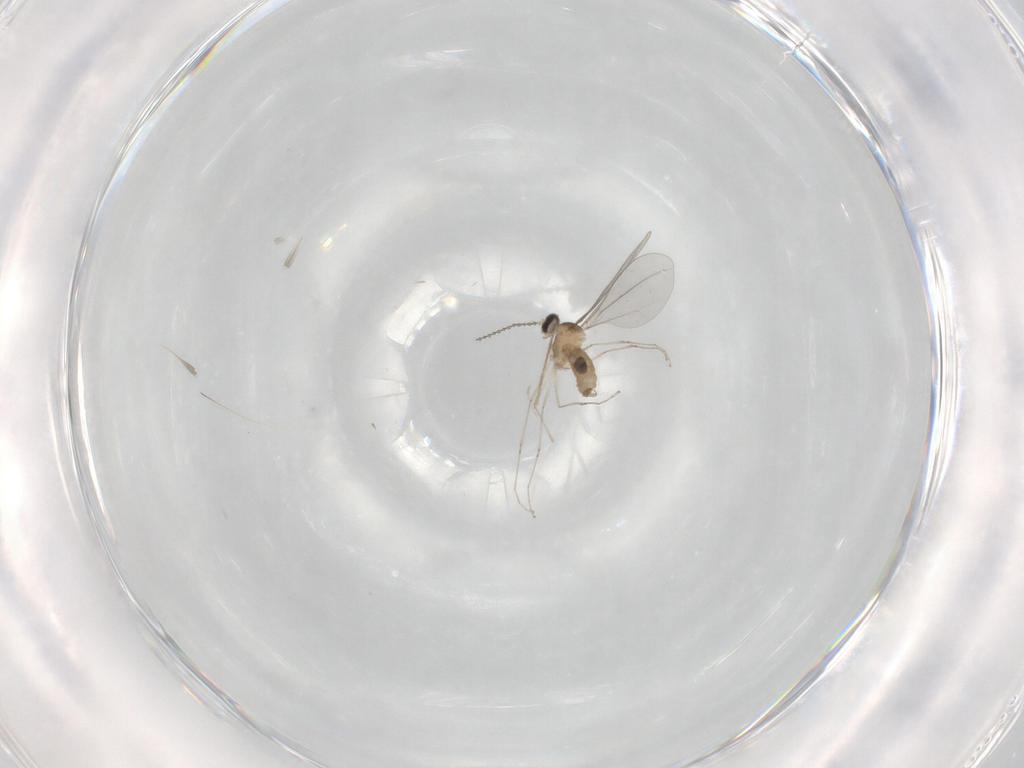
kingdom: Animalia
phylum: Arthropoda
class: Insecta
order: Diptera
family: Chironomidae
